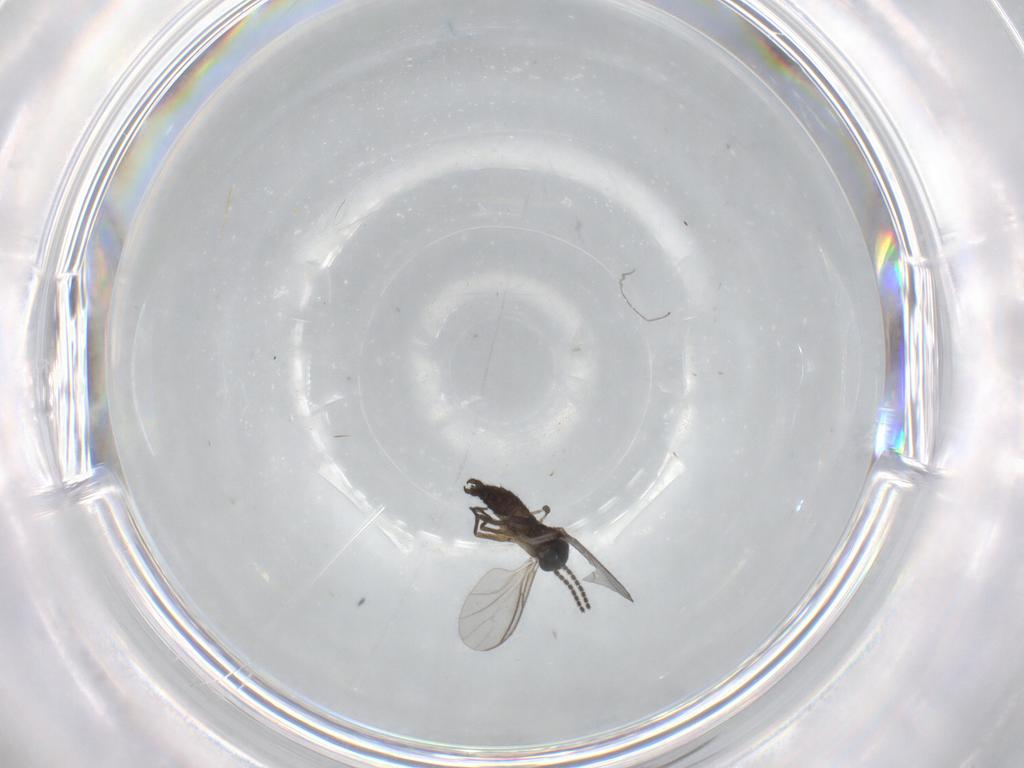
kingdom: Animalia
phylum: Arthropoda
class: Insecta
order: Diptera
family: Sciaridae
